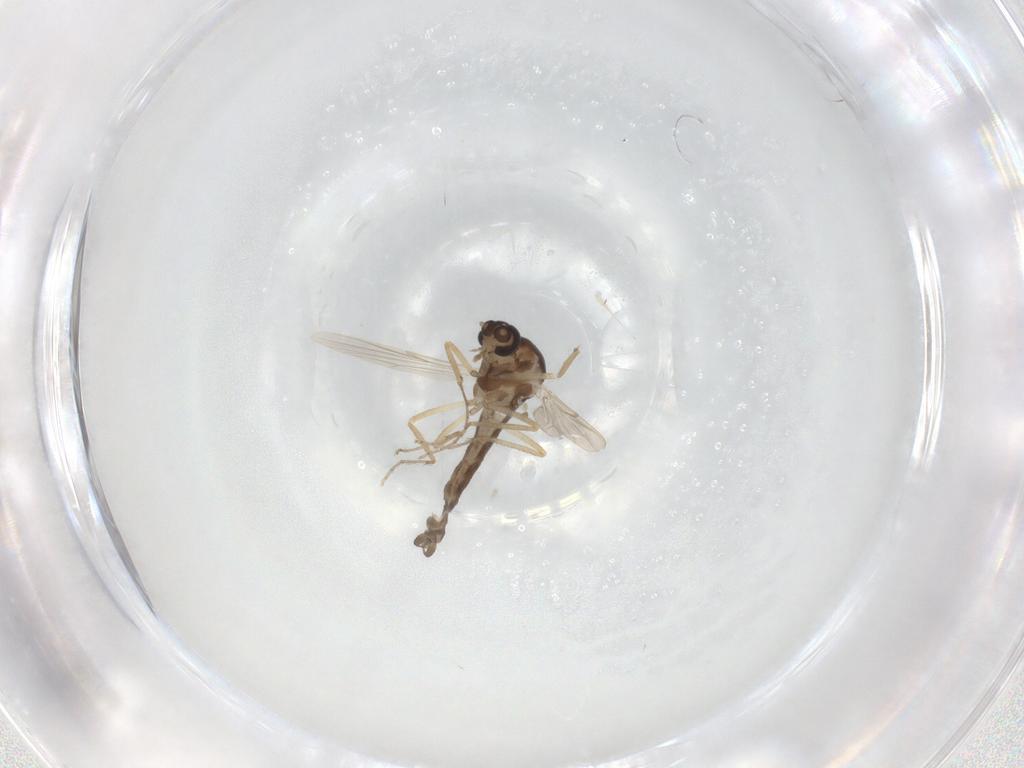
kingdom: Animalia
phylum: Arthropoda
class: Insecta
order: Diptera
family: Ceratopogonidae
